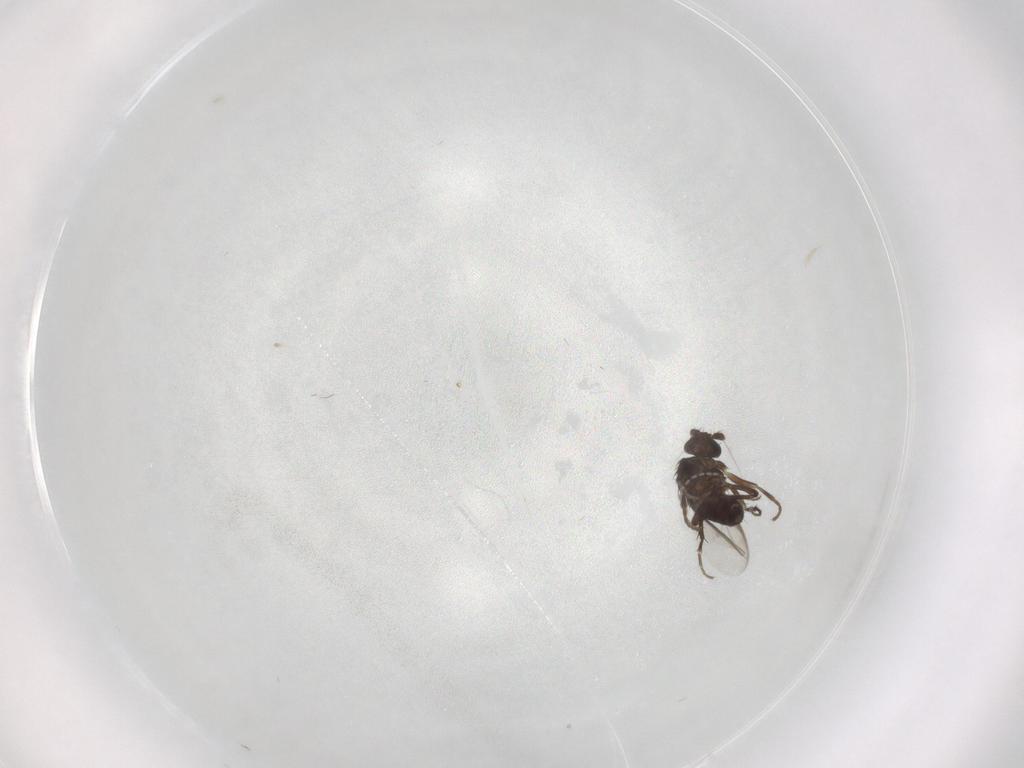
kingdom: Animalia
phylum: Arthropoda
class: Insecta
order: Diptera
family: Sphaeroceridae
